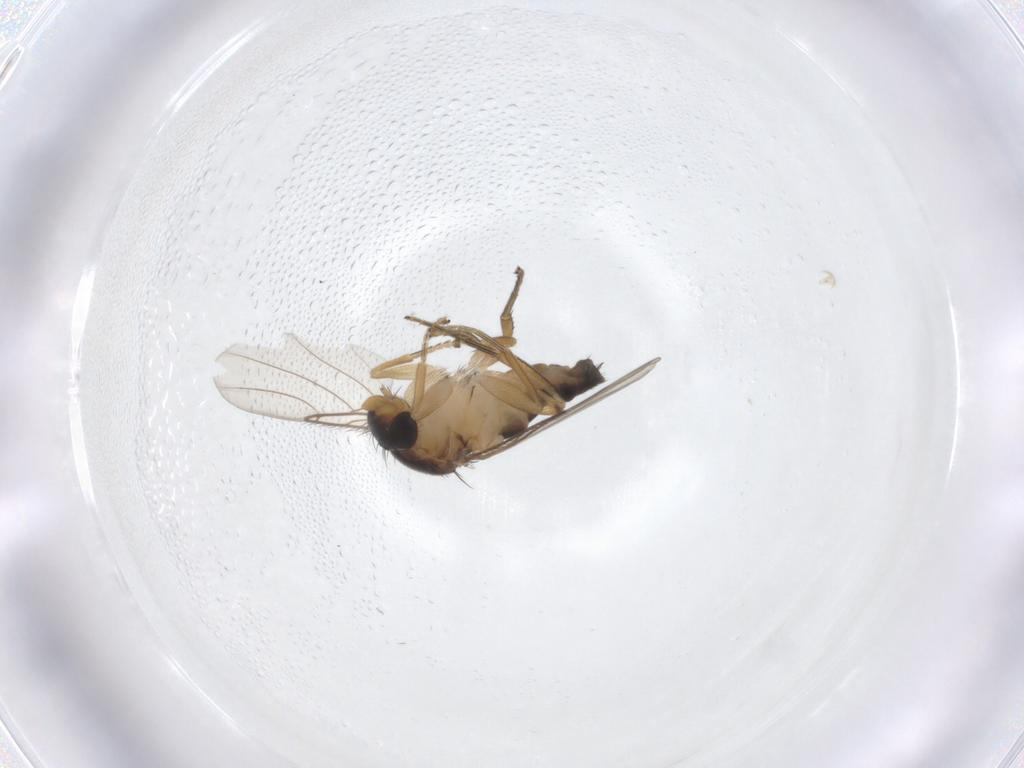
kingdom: Animalia
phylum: Arthropoda
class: Insecta
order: Diptera
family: Phoridae
